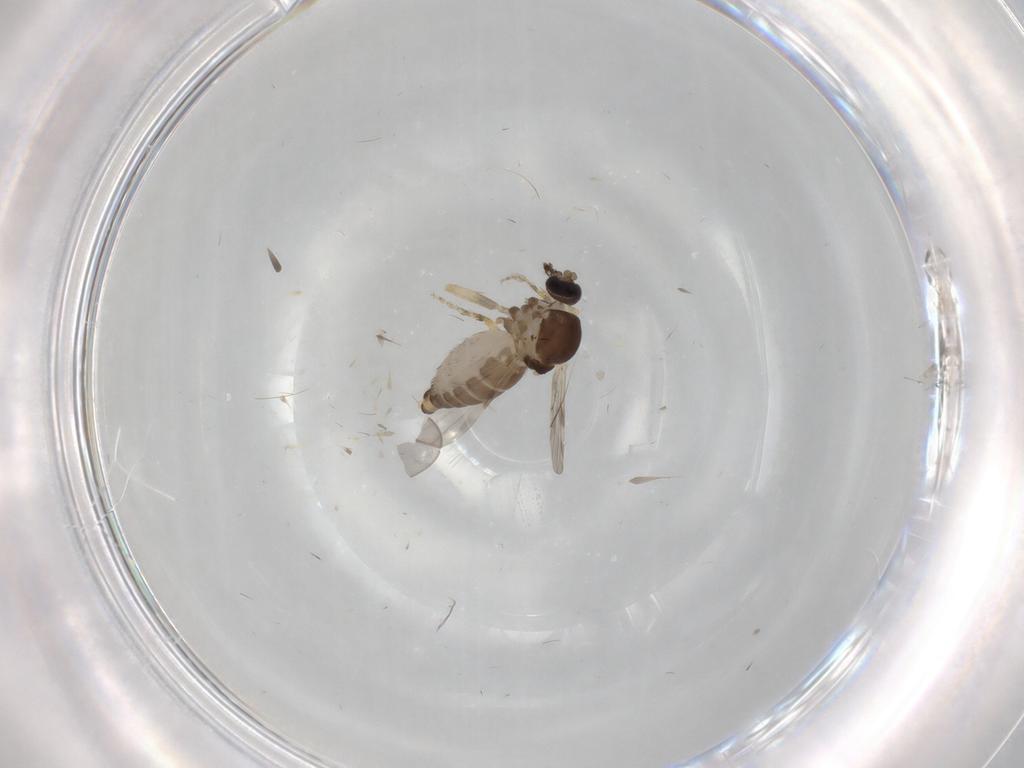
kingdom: Animalia
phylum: Arthropoda
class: Insecta
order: Diptera
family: Ceratopogonidae
